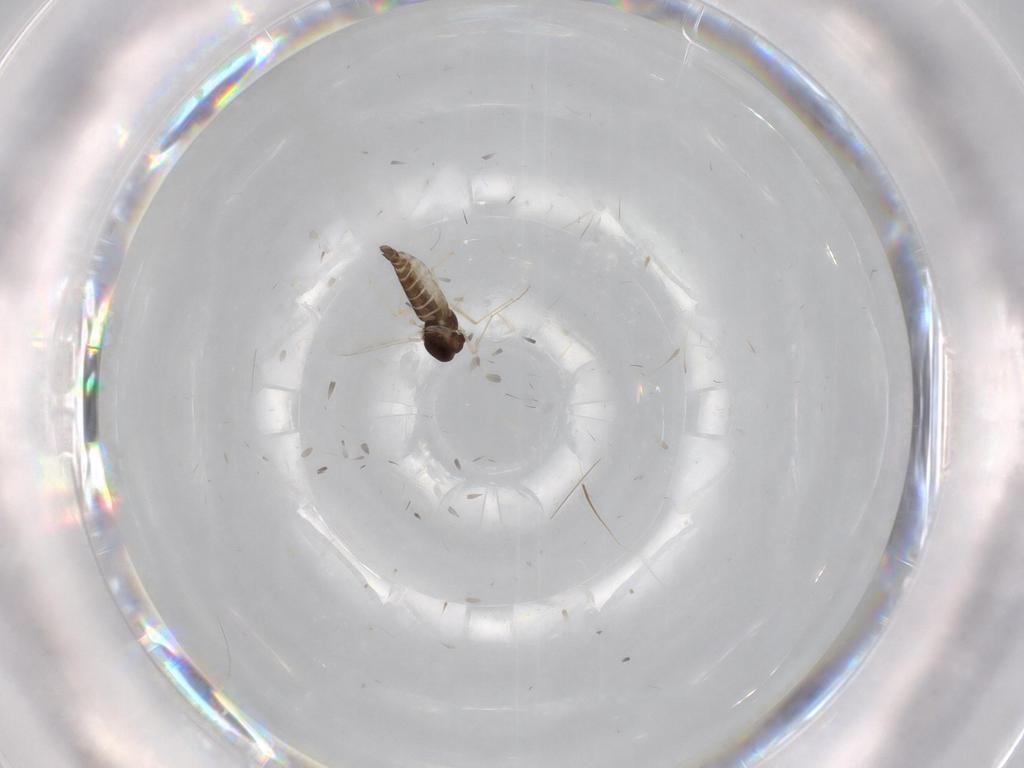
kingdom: Animalia
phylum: Arthropoda
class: Insecta
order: Diptera
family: Chironomidae
